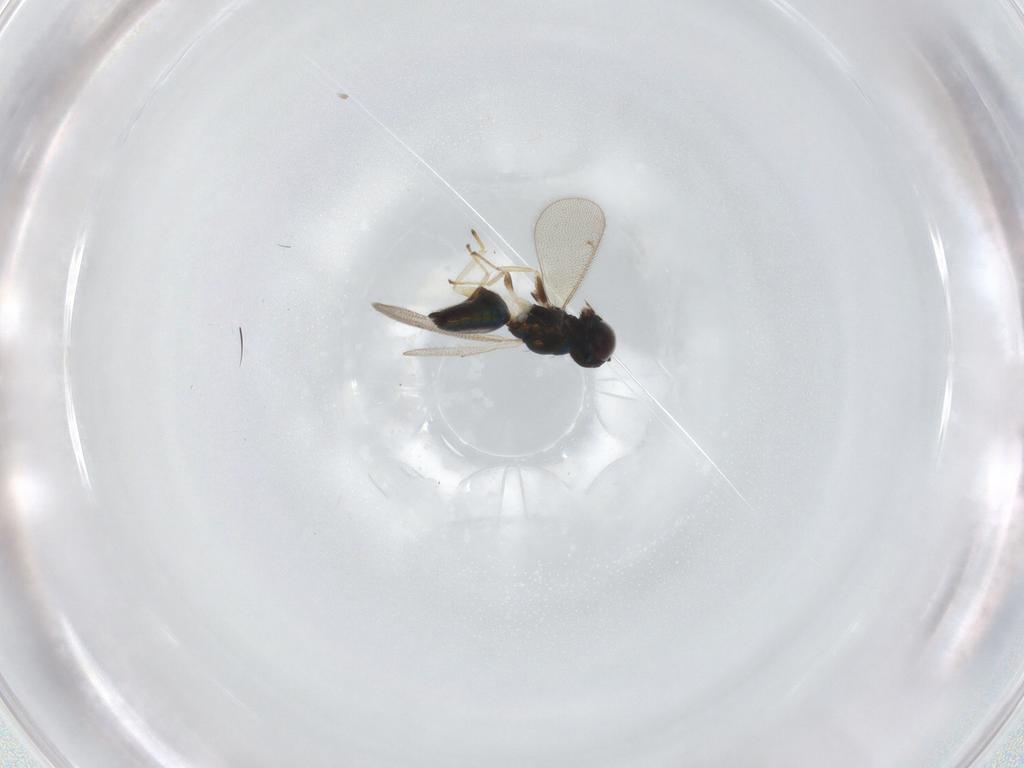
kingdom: Animalia
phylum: Arthropoda
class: Insecta
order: Hymenoptera
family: Eulophidae
